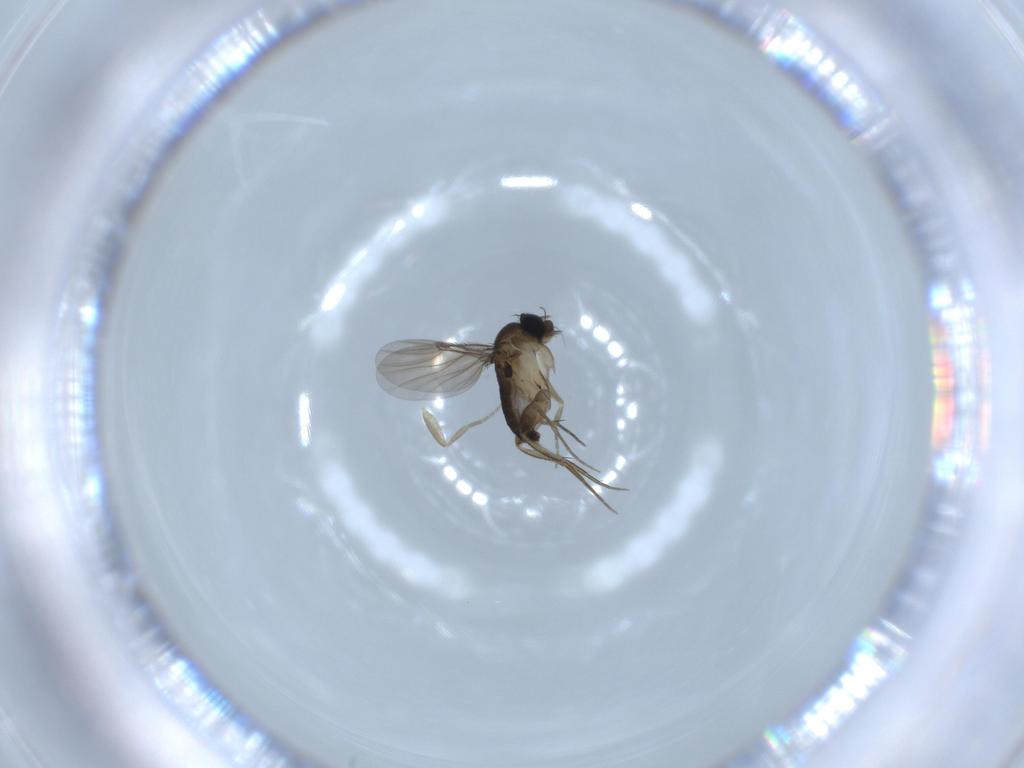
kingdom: Animalia
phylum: Arthropoda
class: Insecta
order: Diptera
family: Phoridae
